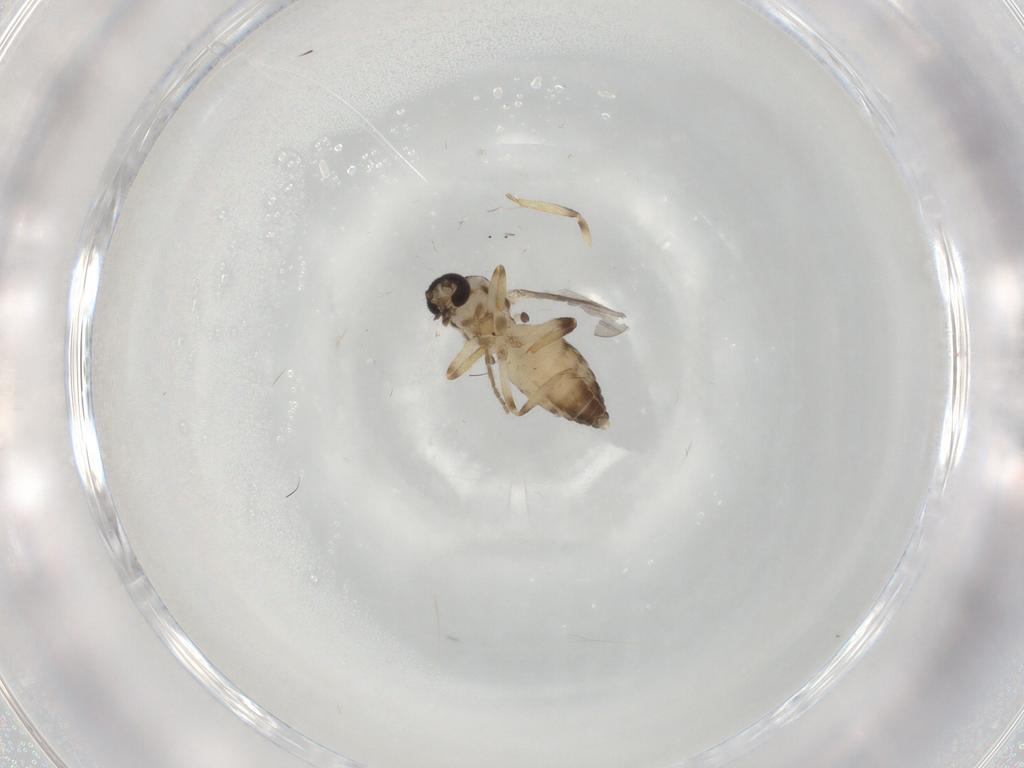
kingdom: Animalia
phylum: Arthropoda
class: Insecta
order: Diptera
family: Ceratopogonidae
